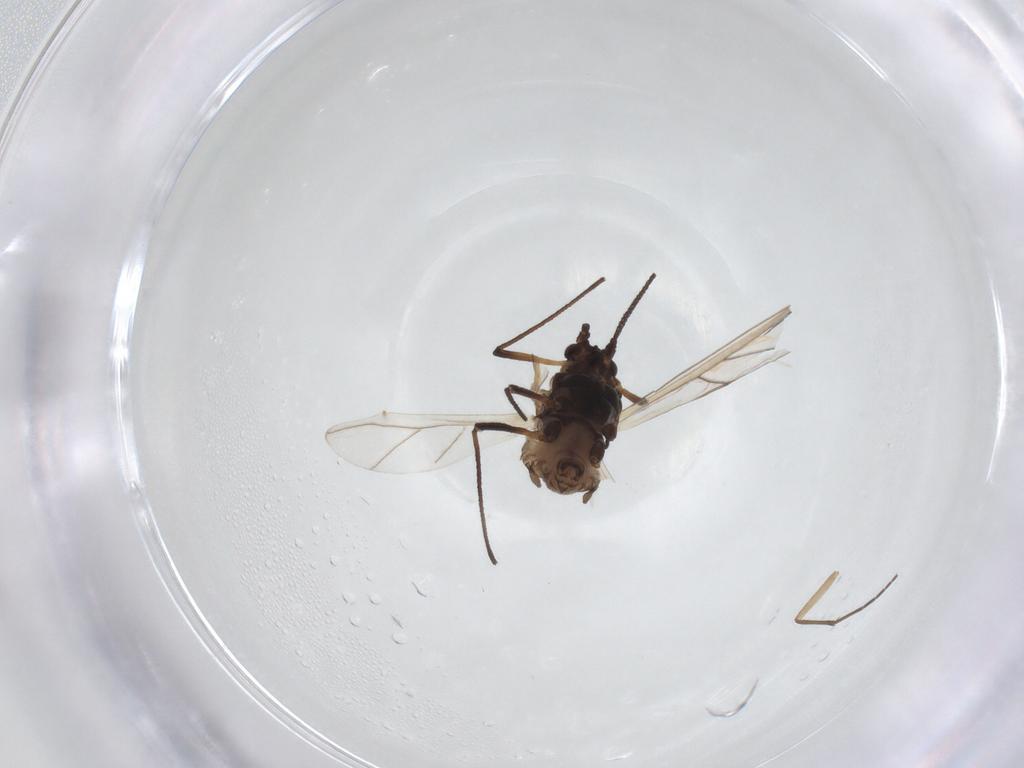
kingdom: Animalia
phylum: Arthropoda
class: Insecta
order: Hemiptera
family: Aphididae
